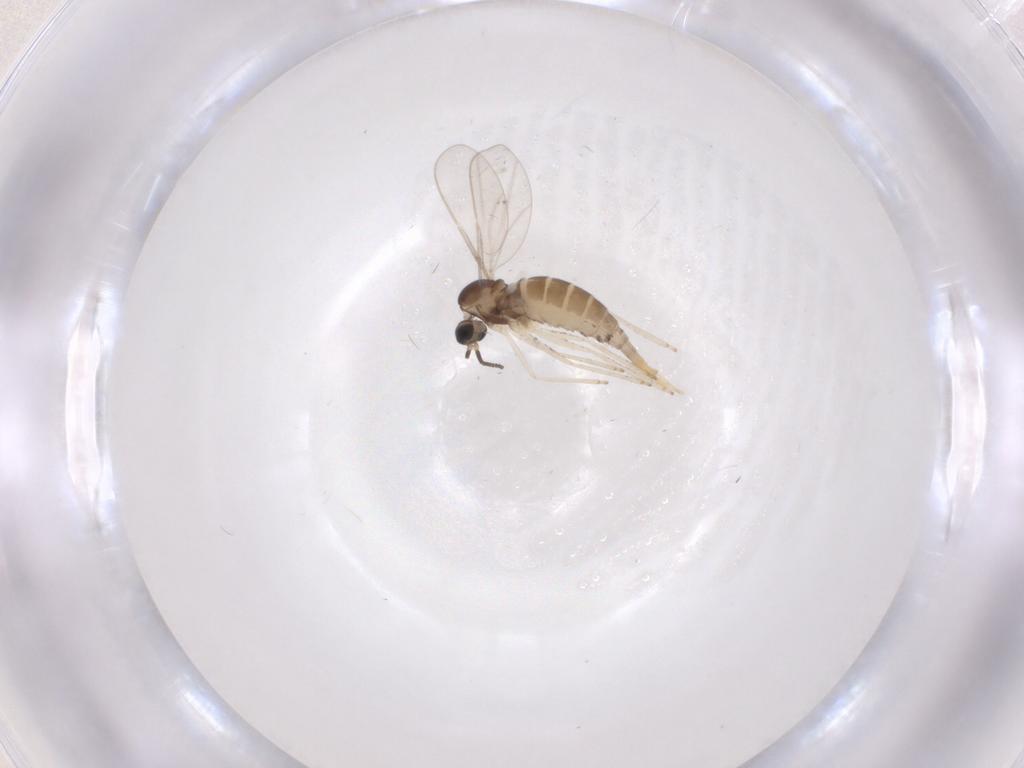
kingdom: Animalia
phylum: Arthropoda
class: Insecta
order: Diptera
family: Cecidomyiidae
